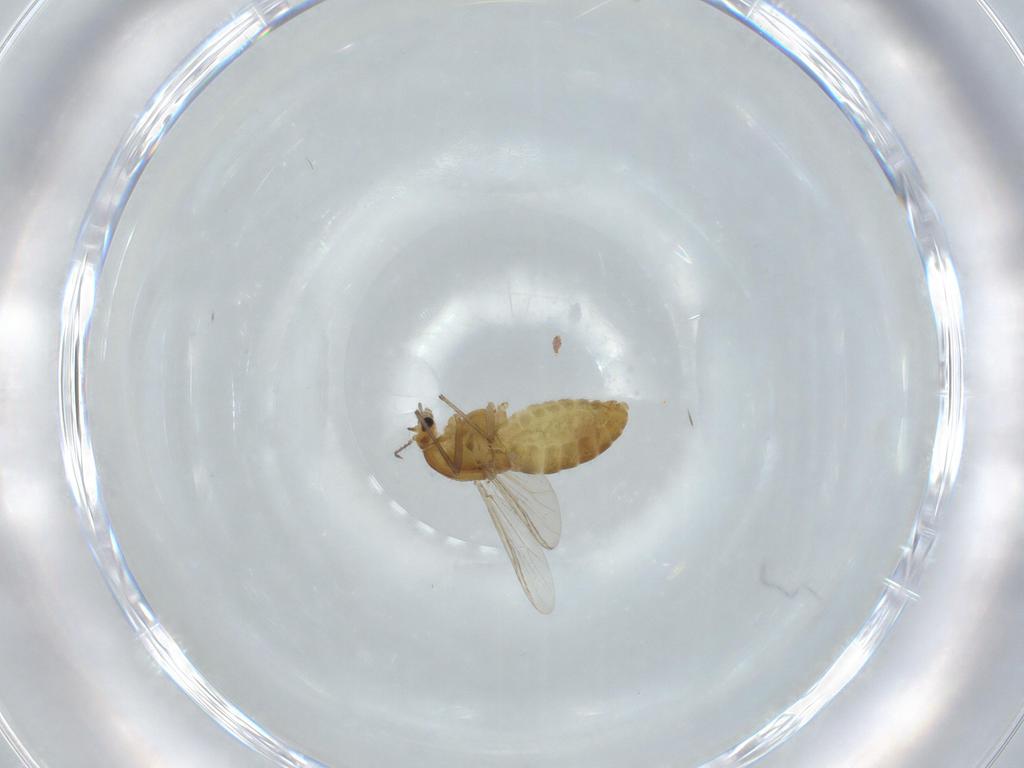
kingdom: Animalia
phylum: Arthropoda
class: Insecta
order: Diptera
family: Chironomidae
